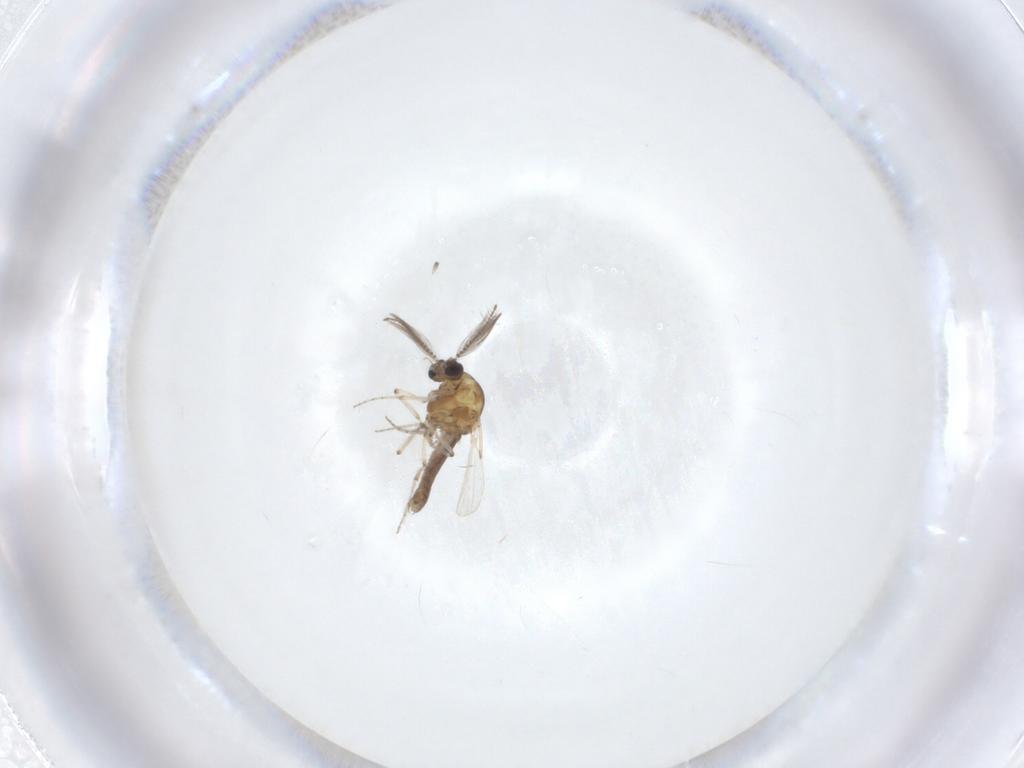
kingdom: Animalia
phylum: Arthropoda
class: Insecta
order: Diptera
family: Ceratopogonidae
